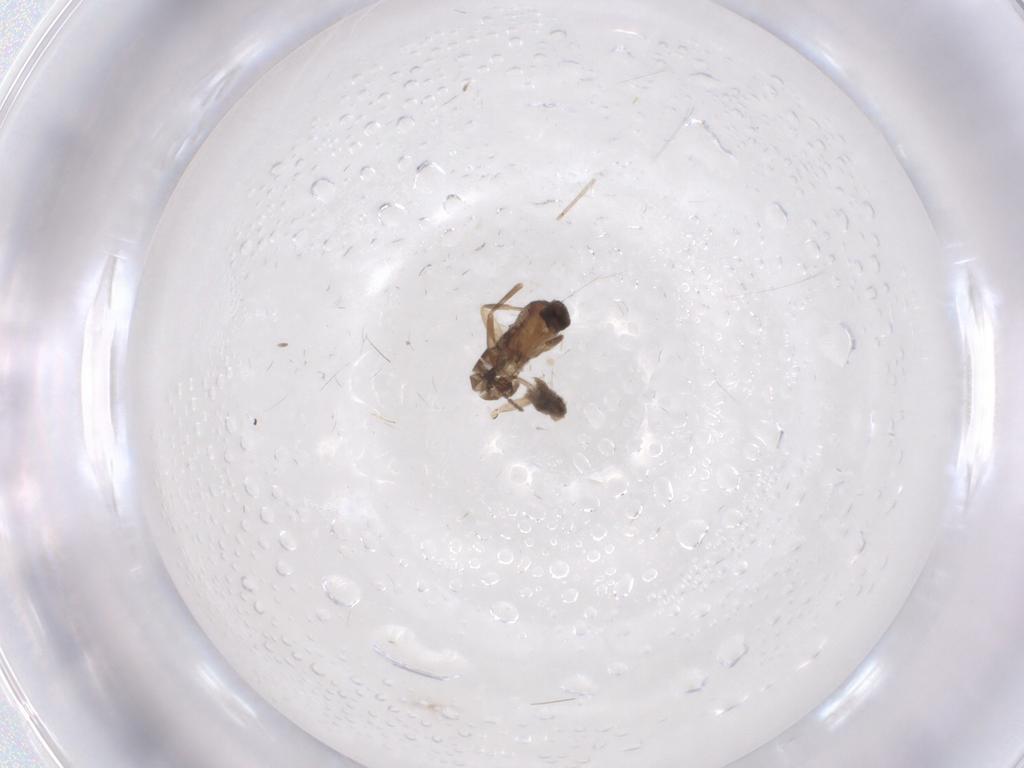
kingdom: Animalia
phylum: Arthropoda
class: Insecta
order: Diptera
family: Phoridae
